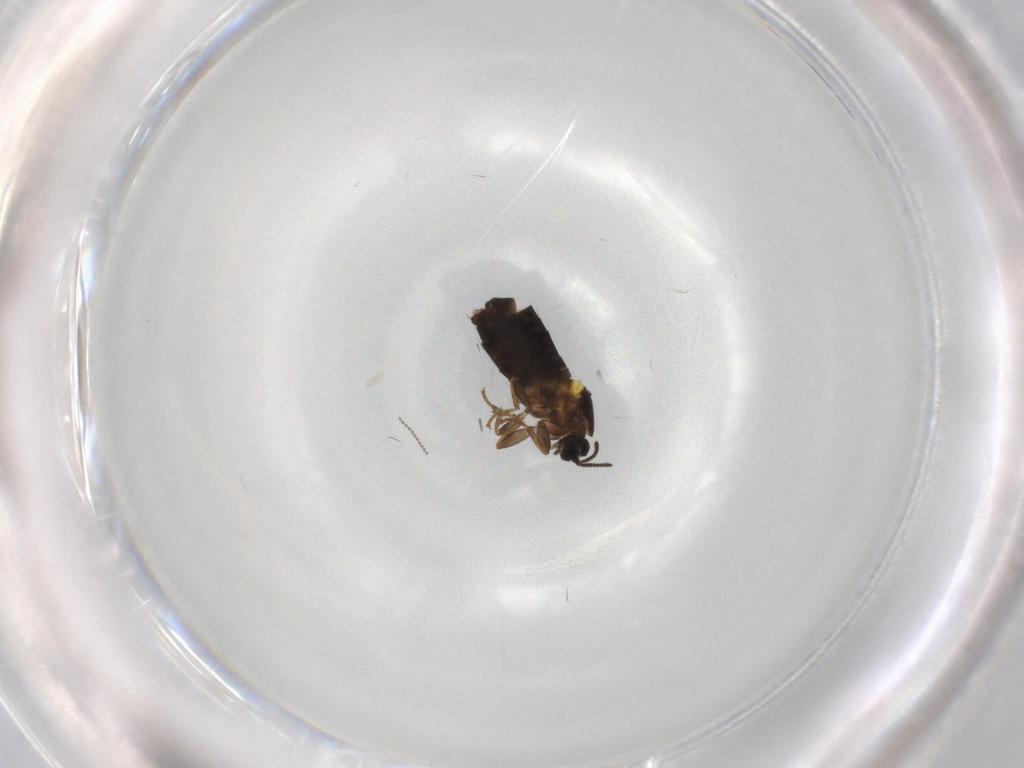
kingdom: Animalia
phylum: Arthropoda
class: Insecta
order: Diptera
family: Scatopsidae
